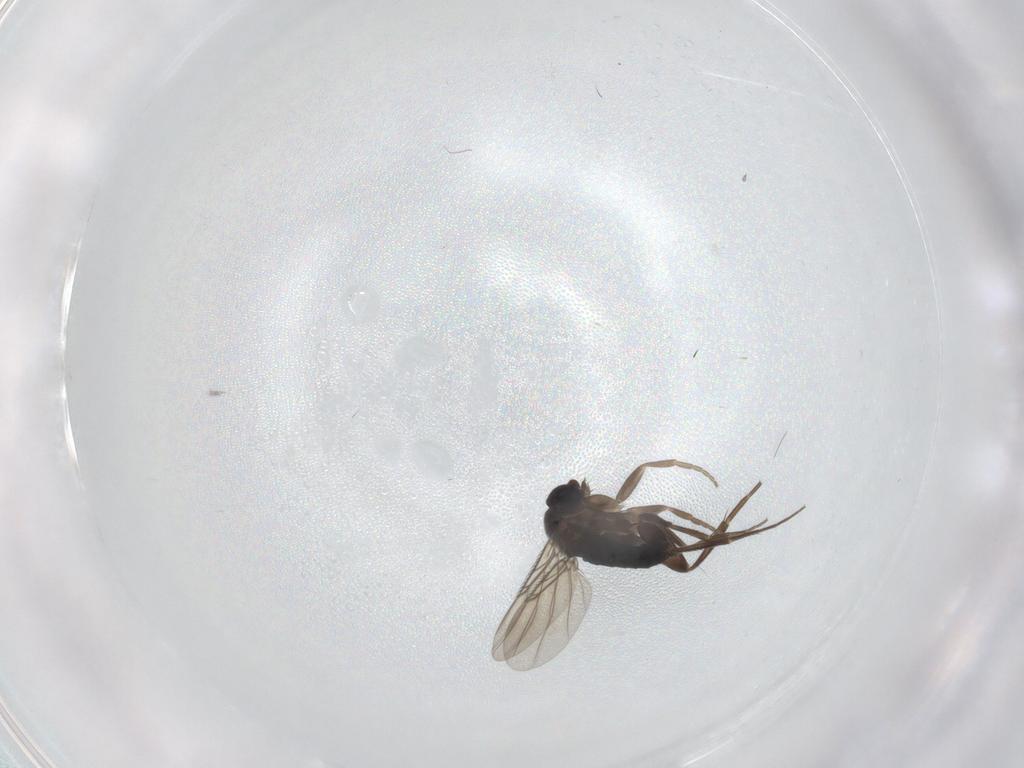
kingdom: Animalia
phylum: Arthropoda
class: Insecta
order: Diptera
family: Phoridae
